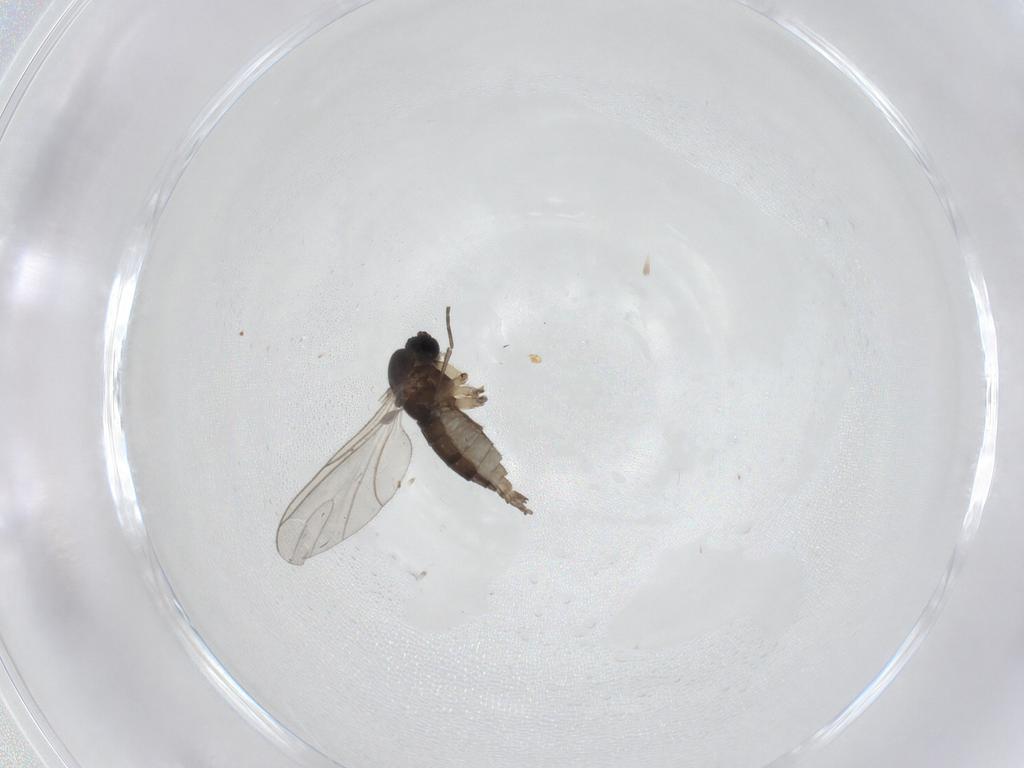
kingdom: Animalia
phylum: Arthropoda
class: Insecta
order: Diptera
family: Sciaridae
